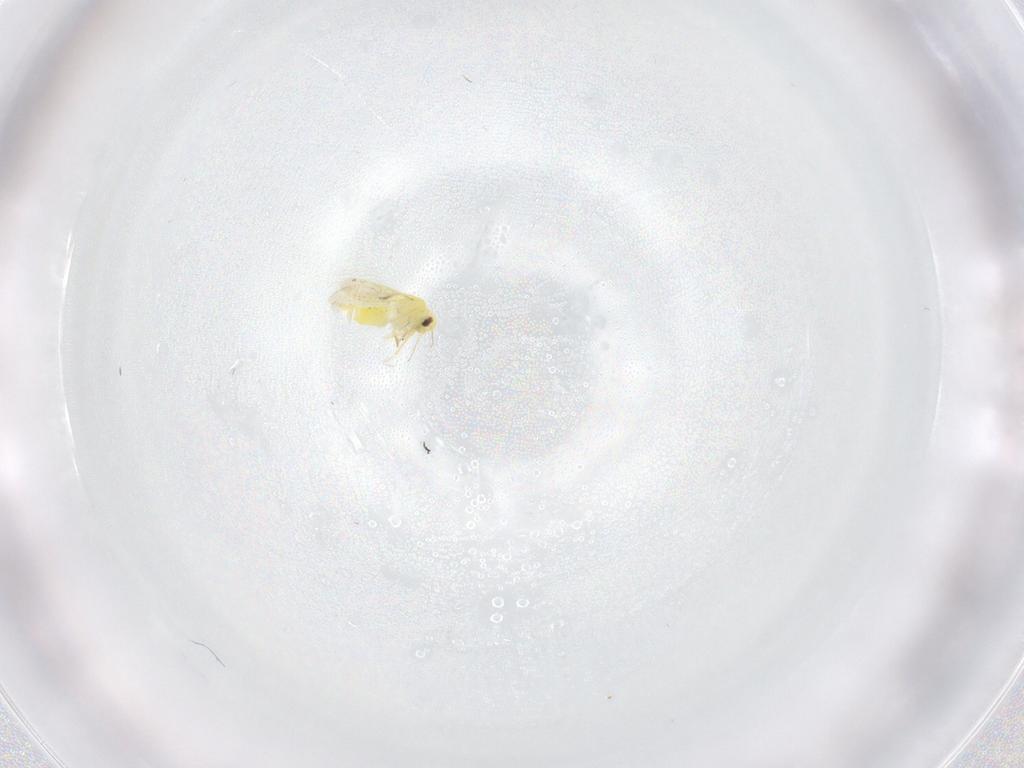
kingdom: Animalia
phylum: Arthropoda
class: Insecta
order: Hemiptera
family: Aleyrodidae
